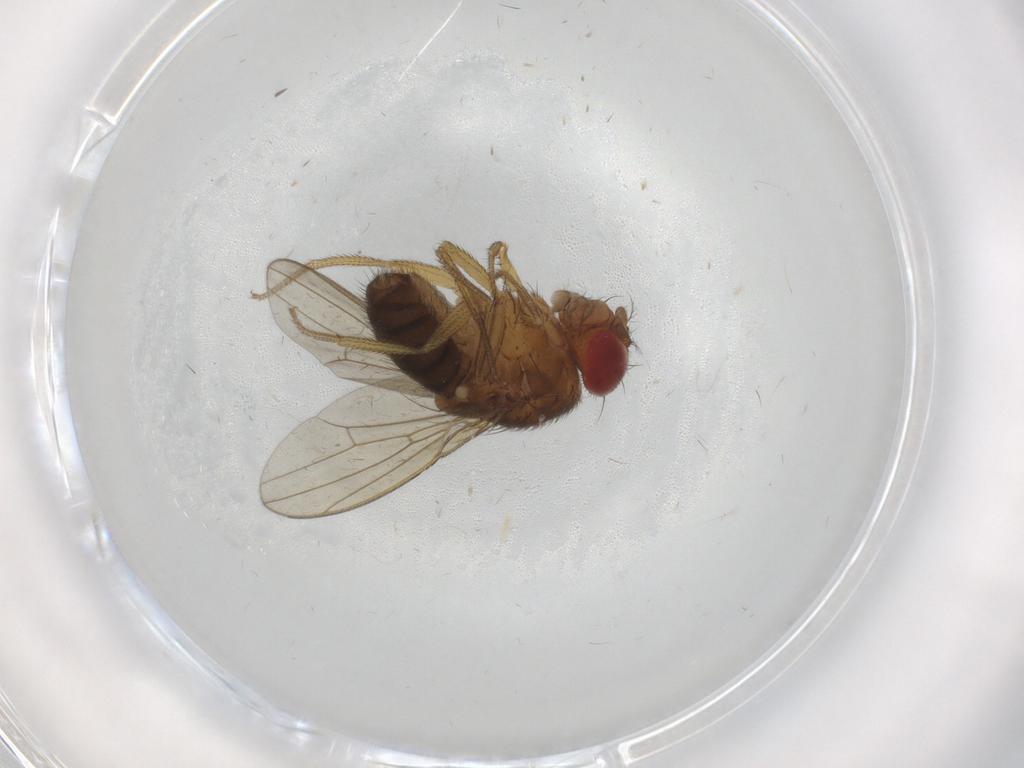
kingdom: Animalia
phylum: Arthropoda
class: Insecta
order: Diptera
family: Drosophilidae
